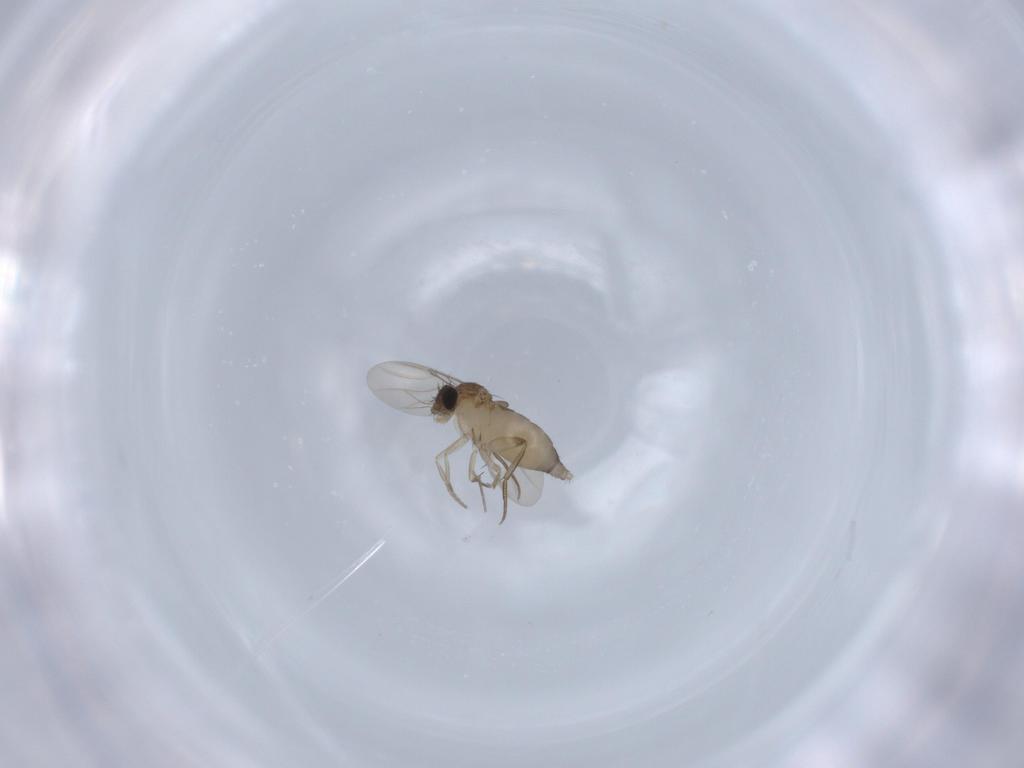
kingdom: Animalia
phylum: Arthropoda
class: Insecta
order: Diptera
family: Phoridae
